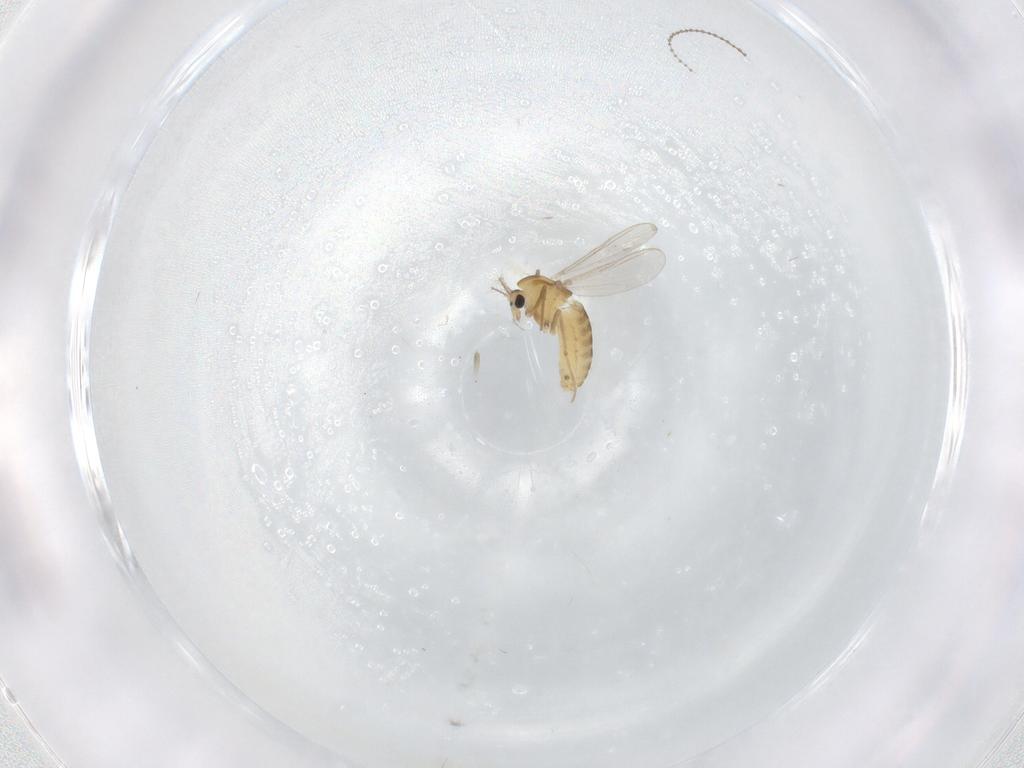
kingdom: Animalia
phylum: Arthropoda
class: Insecta
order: Diptera
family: Cecidomyiidae
